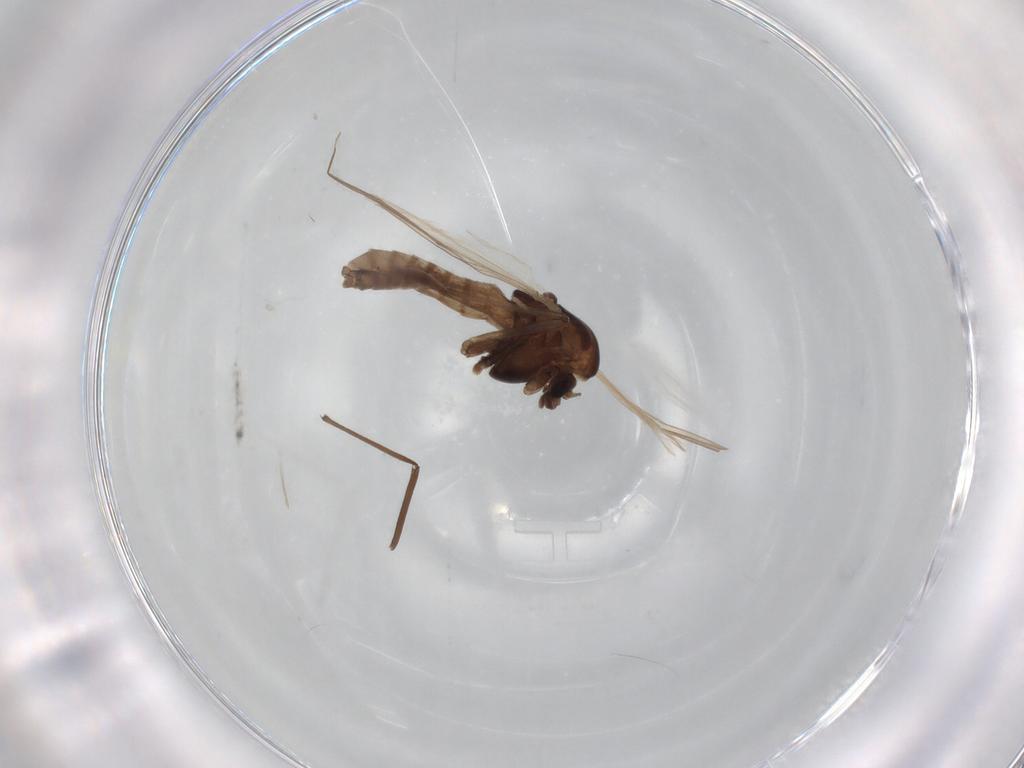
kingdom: Animalia
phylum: Arthropoda
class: Insecta
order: Diptera
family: Chironomidae
